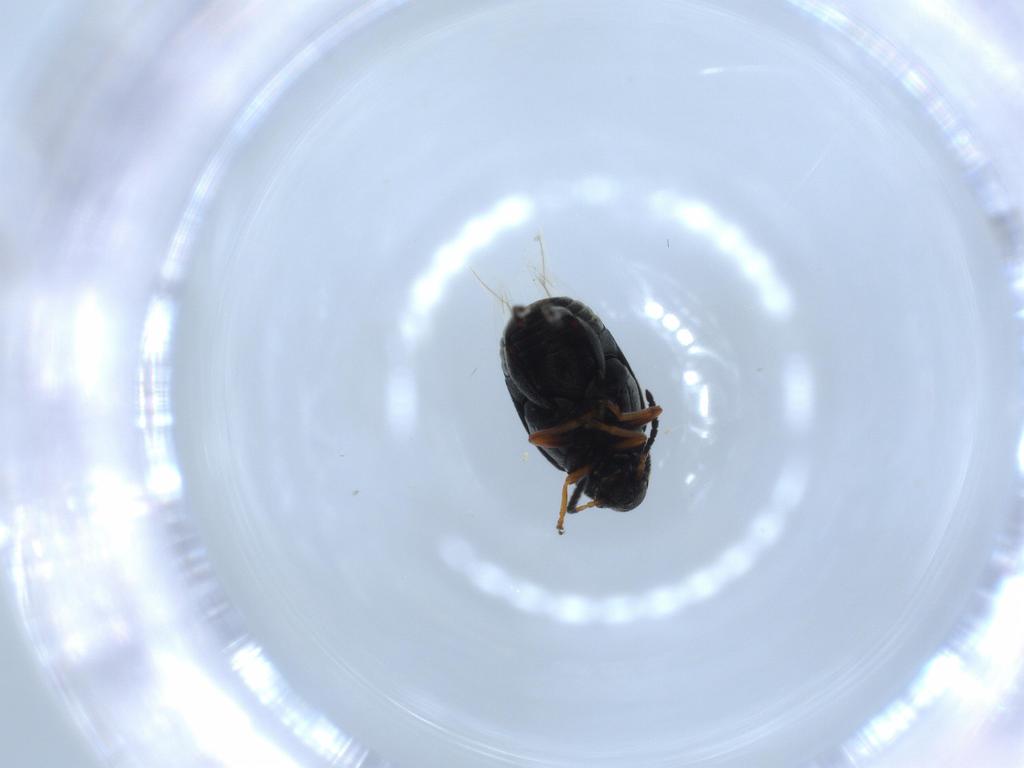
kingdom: Animalia
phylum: Arthropoda
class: Insecta
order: Coleoptera
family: Chrysomelidae
